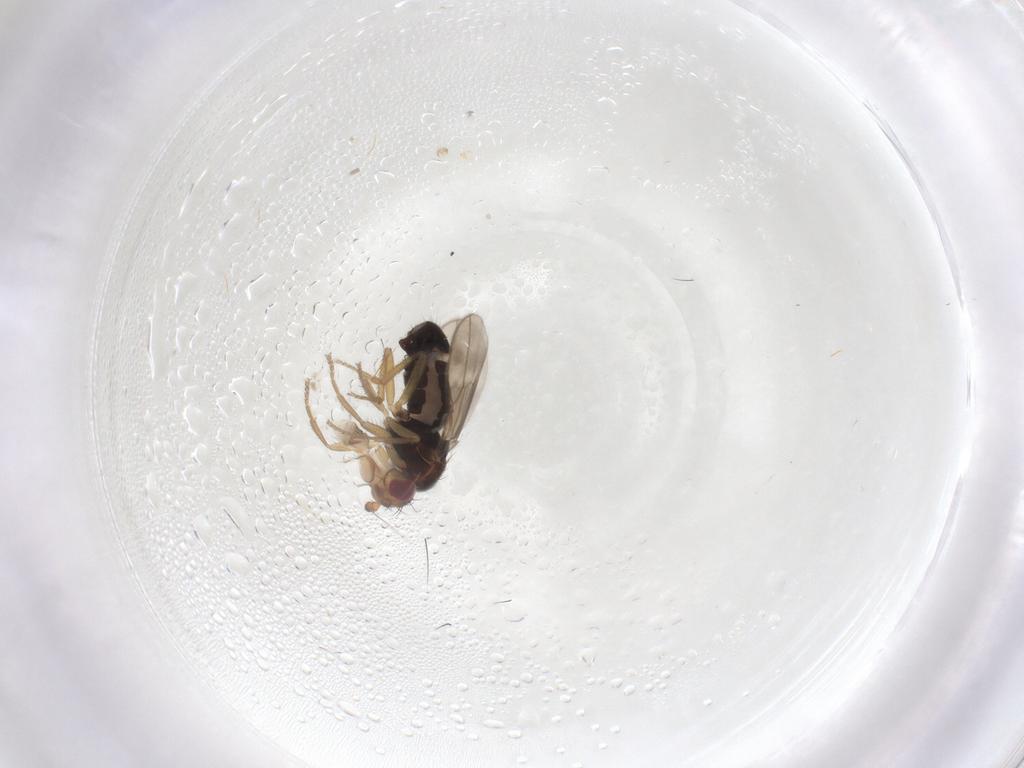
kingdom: Animalia
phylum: Arthropoda
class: Insecta
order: Diptera
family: Sphaeroceridae
